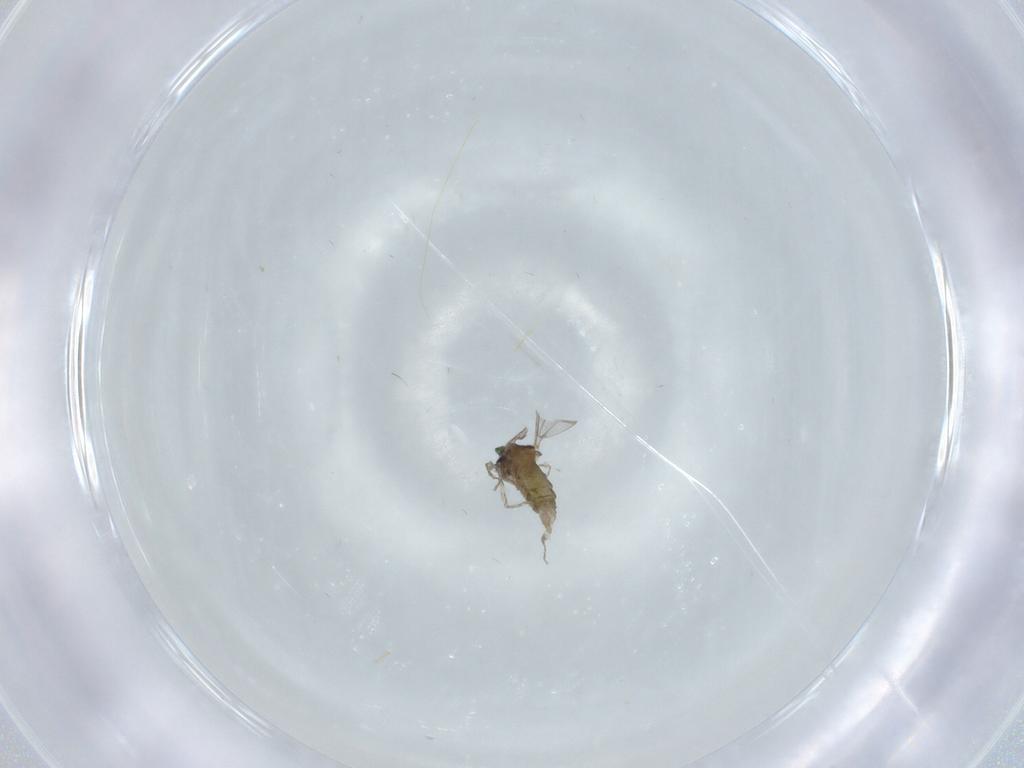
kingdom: Animalia
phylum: Arthropoda
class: Insecta
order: Diptera
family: Cecidomyiidae
